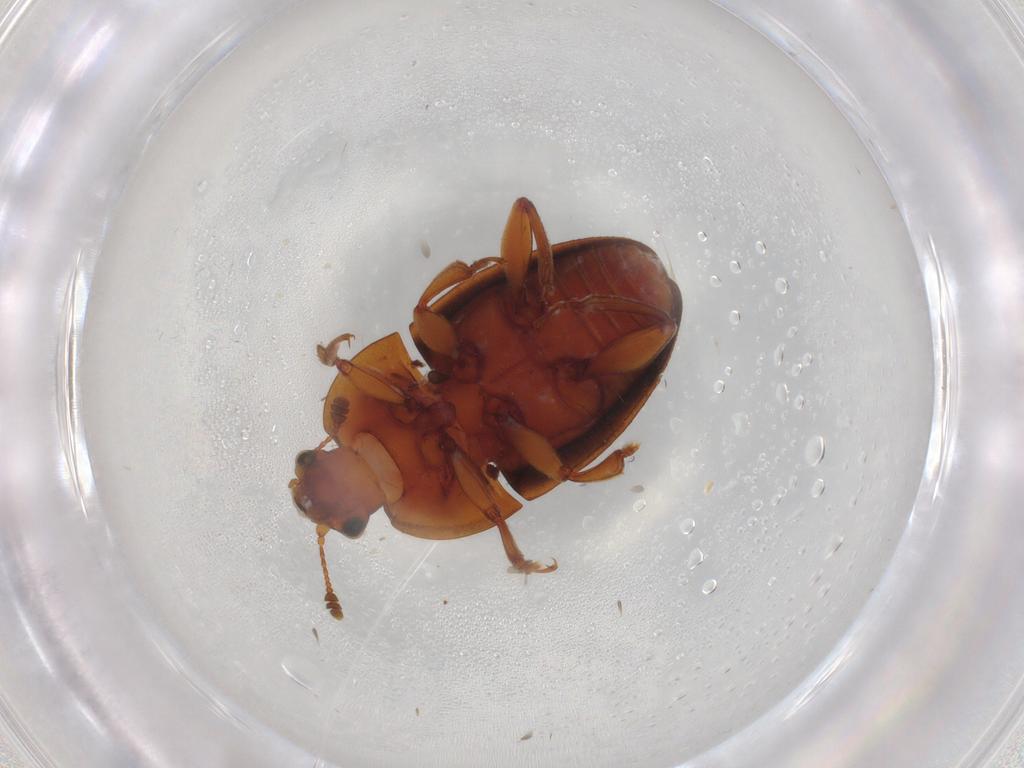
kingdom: Animalia
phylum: Arthropoda
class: Insecta
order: Coleoptera
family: Nitidulidae
